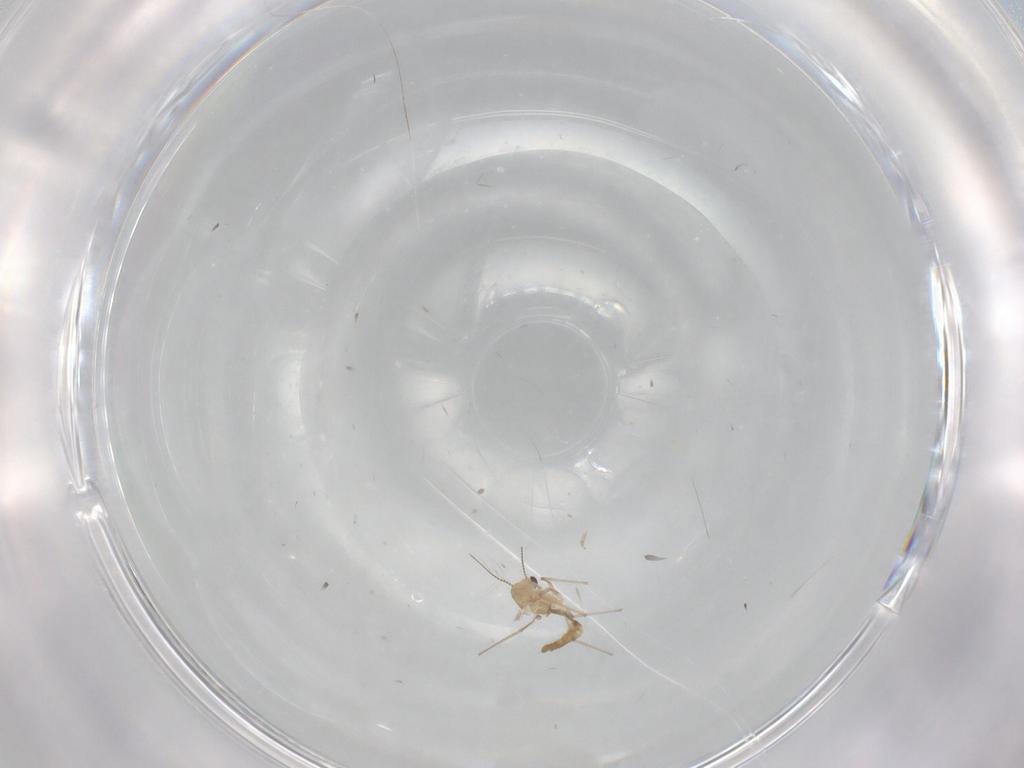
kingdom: Animalia
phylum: Arthropoda
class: Insecta
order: Diptera
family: Chironomidae
